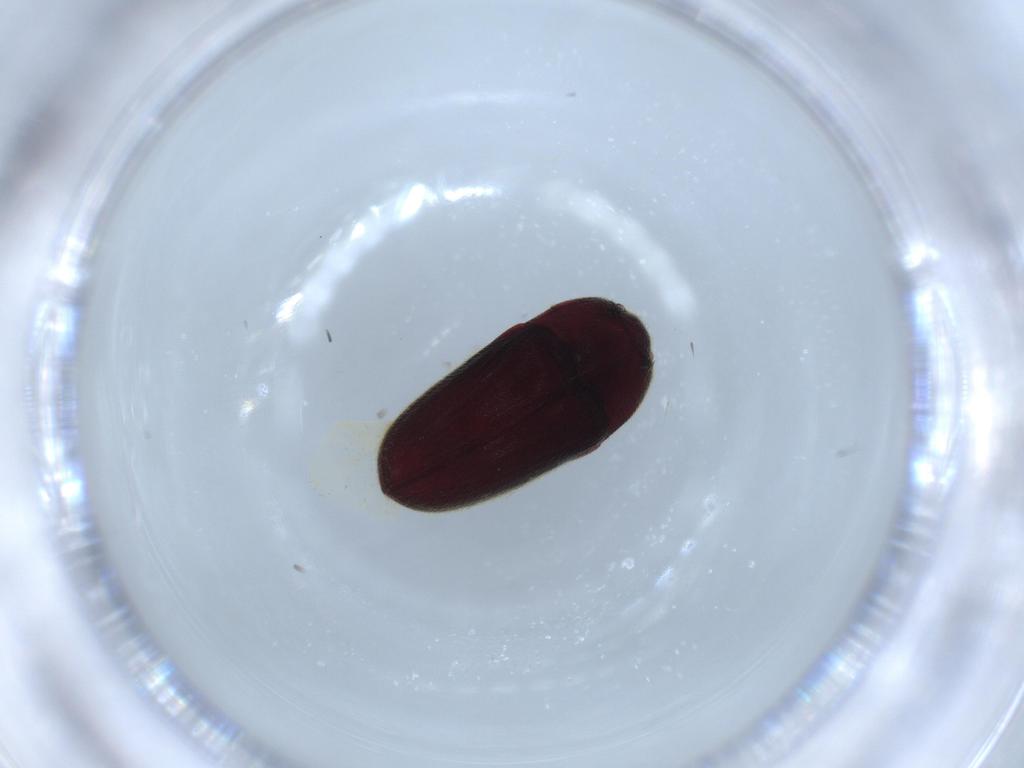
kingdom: Animalia
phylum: Arthropoda
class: Insecta
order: Coleoptera
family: Throscidae
